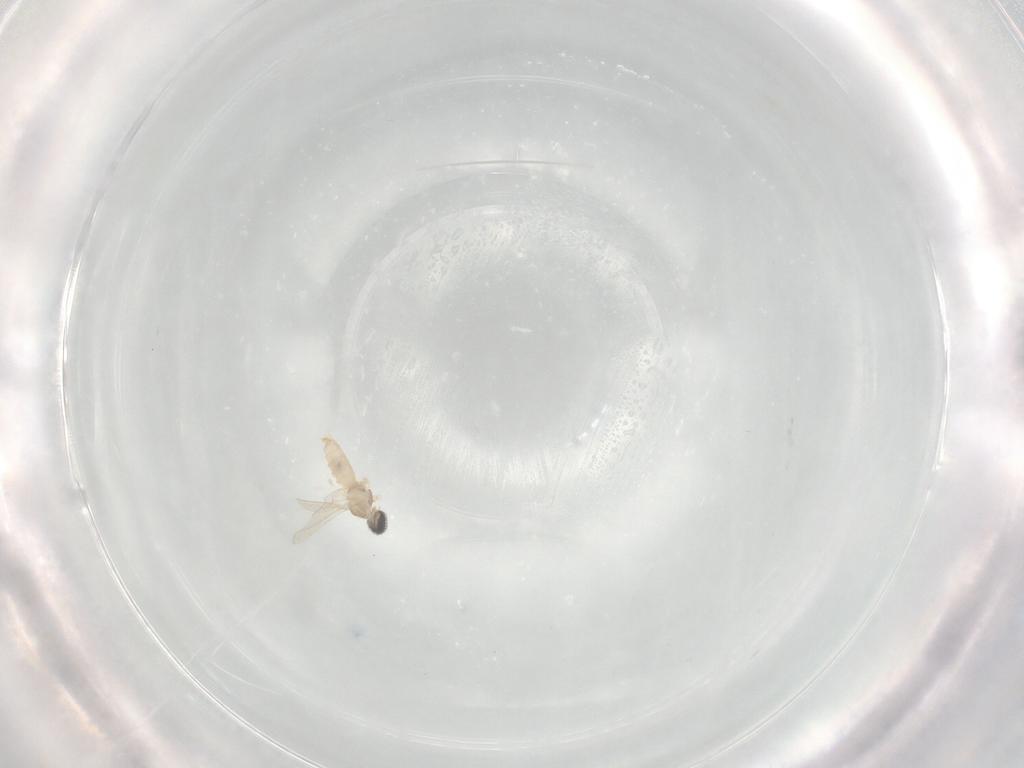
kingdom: Animalia
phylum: Arthropoda
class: Insecta
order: Diptera
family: Cecidomyiidae
